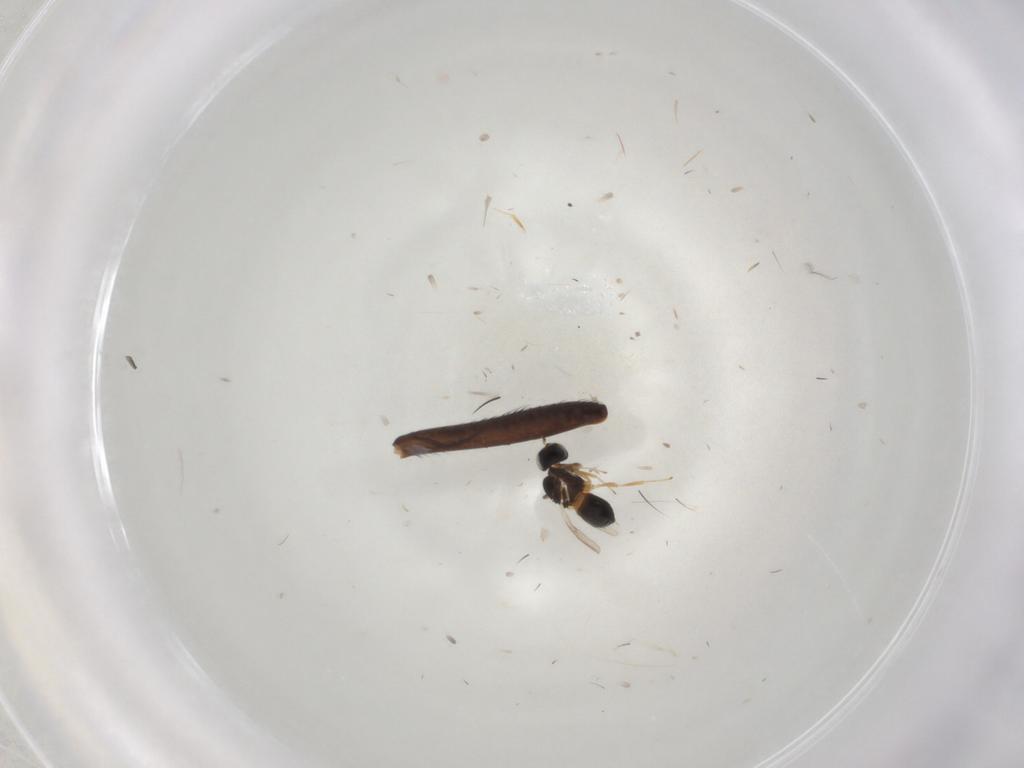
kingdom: Animalia
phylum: Arthropoda
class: Insecta
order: Hymenoptera
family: Scelionidae
